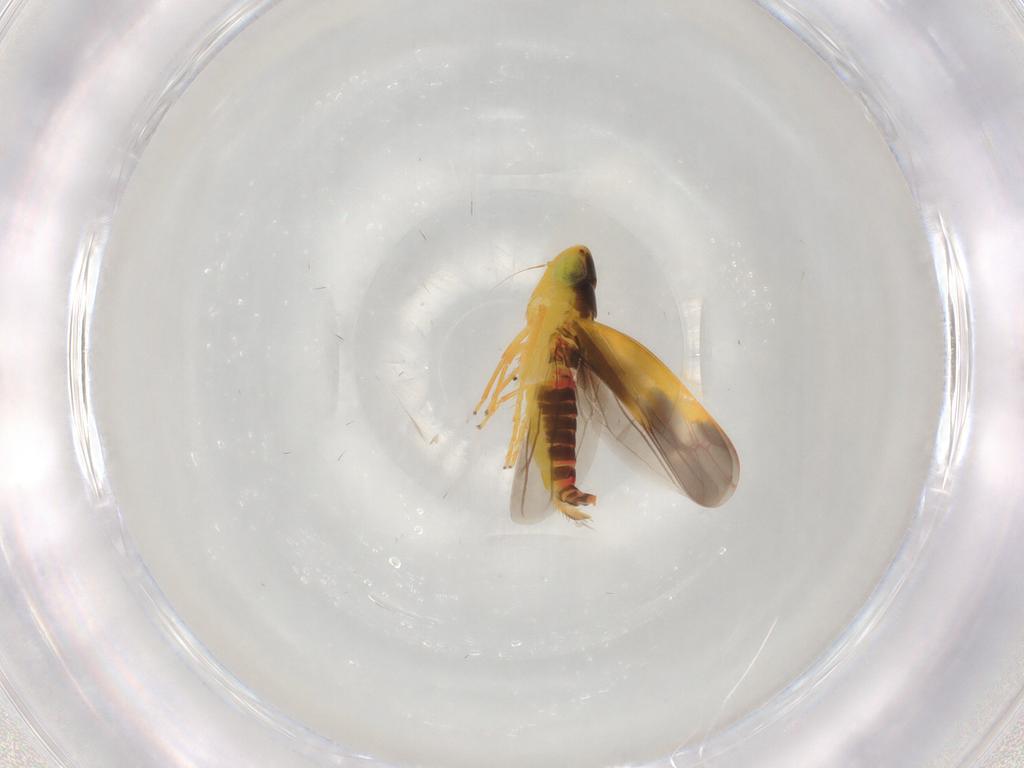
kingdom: Animalia
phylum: Arthropoda
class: Insecta
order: Hemiptera
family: Cicadellidae
